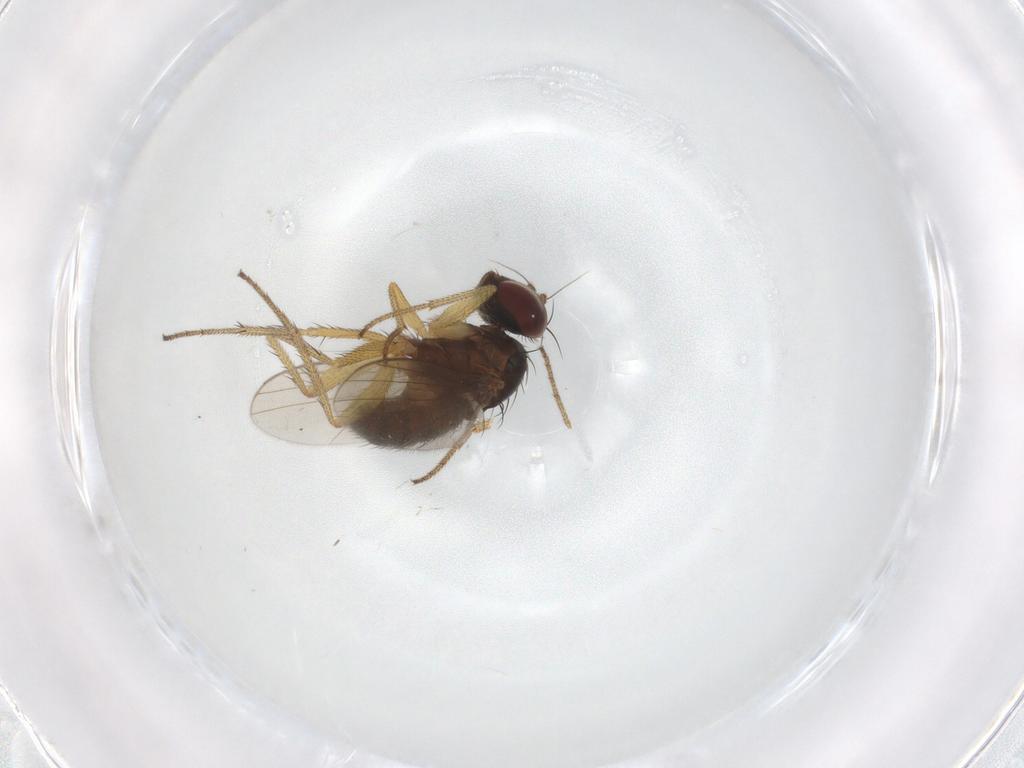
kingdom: Animalia
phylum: Arthropoda
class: Insecta
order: Diptera
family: Dolichopodidae
